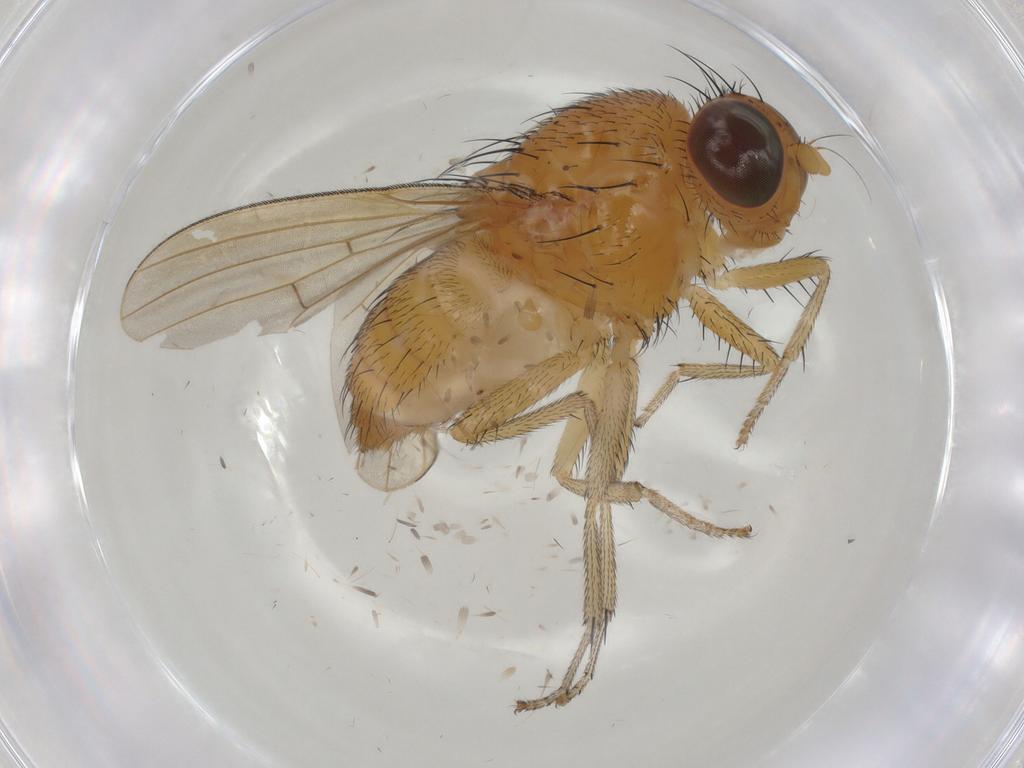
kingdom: Animalia
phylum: Arthropoda
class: Insecta
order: Diptera
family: Lauxaniidae
